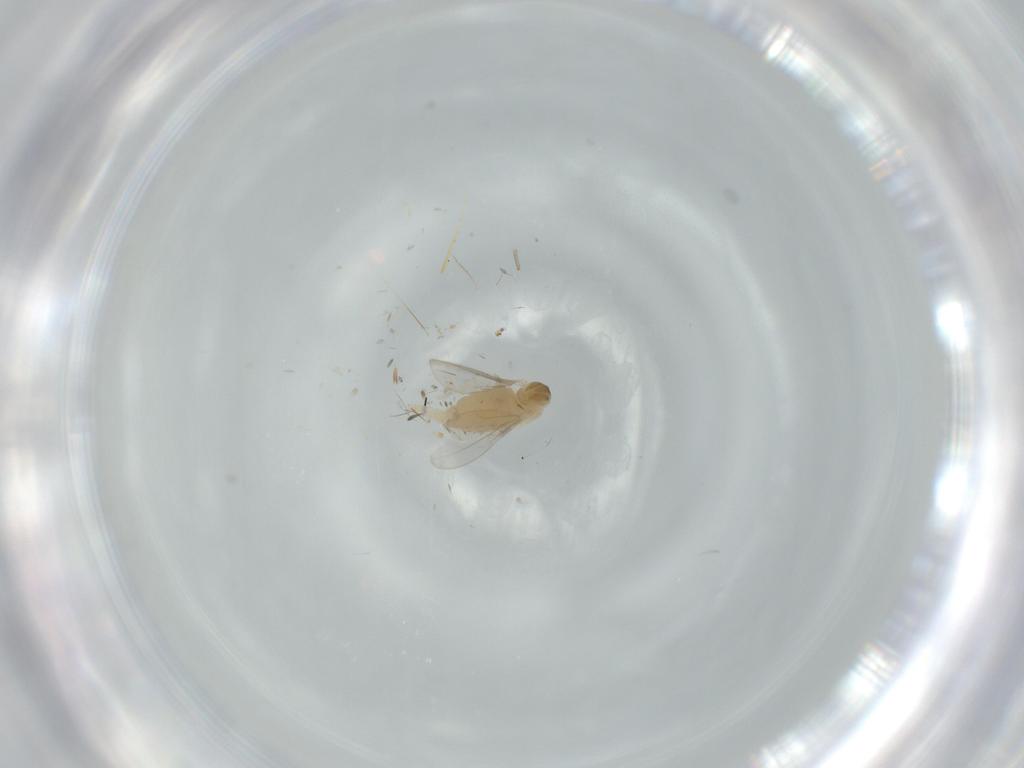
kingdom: Animalia
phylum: Arthropoda
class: Insecta
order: Diptera
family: Cecidomyiidae
